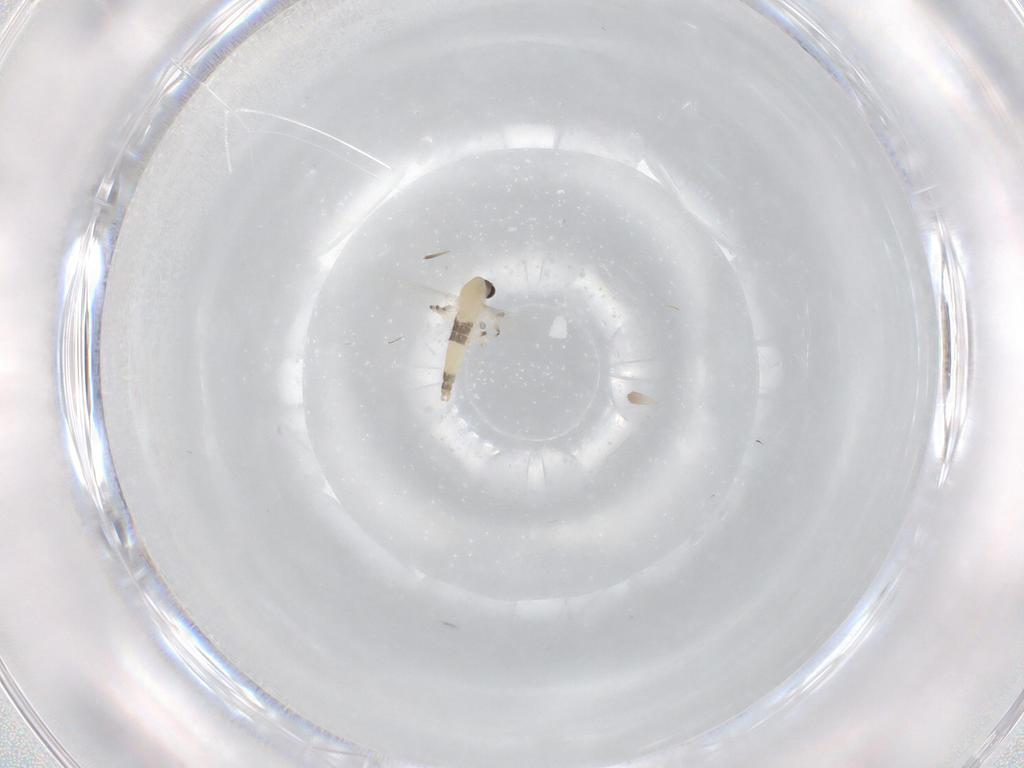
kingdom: Animalia
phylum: Arthropoda
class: Insecta
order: Diptera
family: Chironomidae
